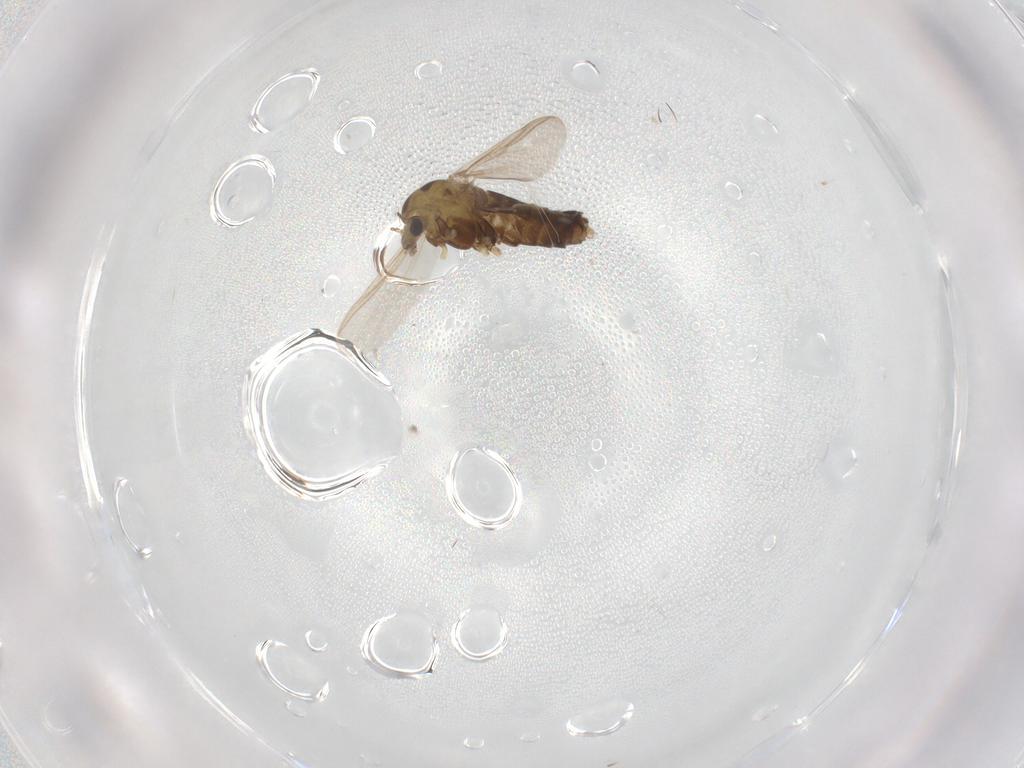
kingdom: Animalia
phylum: Arthropoda
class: Insecta
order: Diptera
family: Chironomidae
